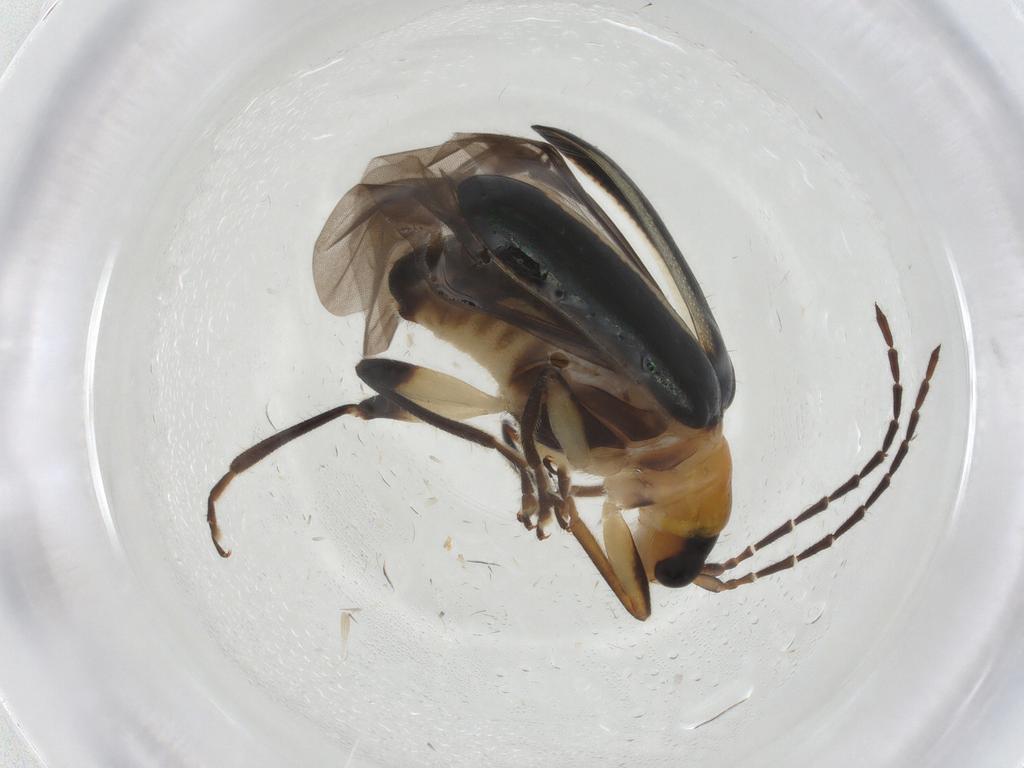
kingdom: Animalia
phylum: Arthropoda
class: Insecta
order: Coleoptera
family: Chrysomelidae
